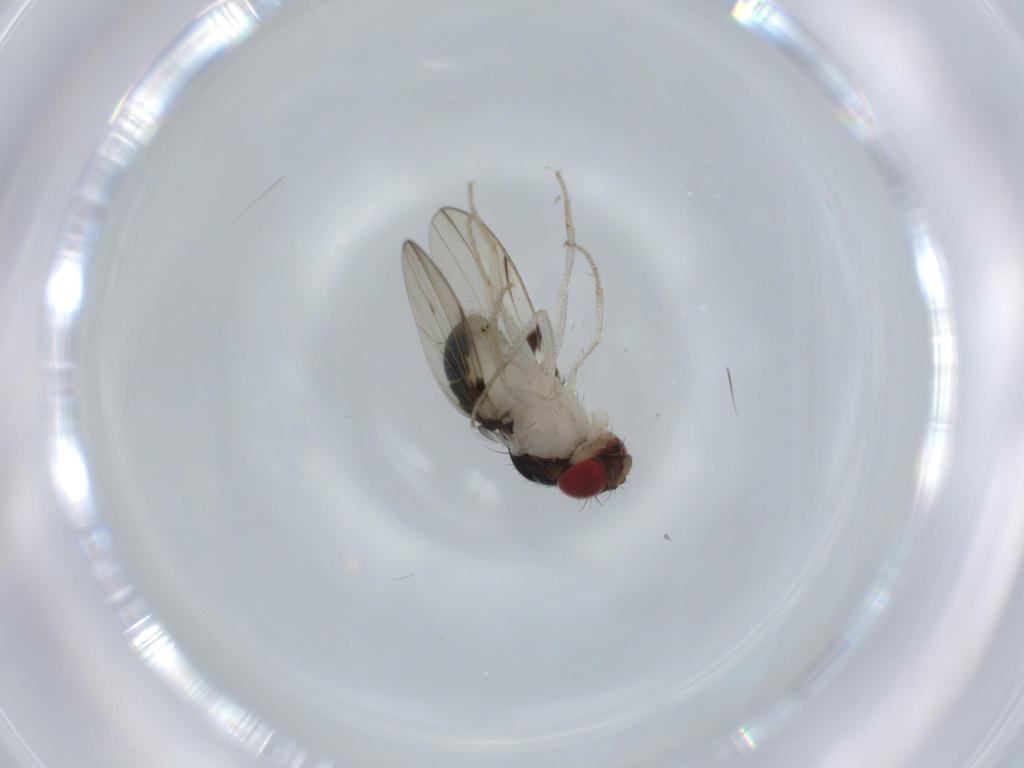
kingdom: Animalia
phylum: Arthropoda
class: Insecta
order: Diptera
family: Drosophilidae
